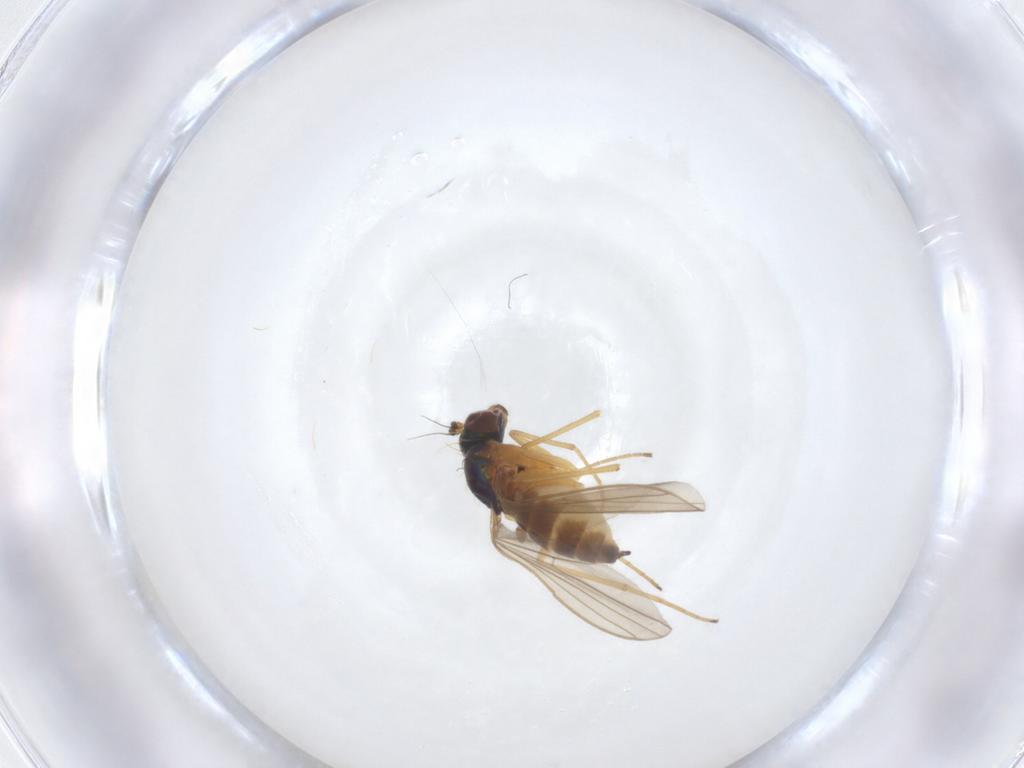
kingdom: Animalia
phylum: Arthropoda
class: Insecta
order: Diptera
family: Dolichopodidae
